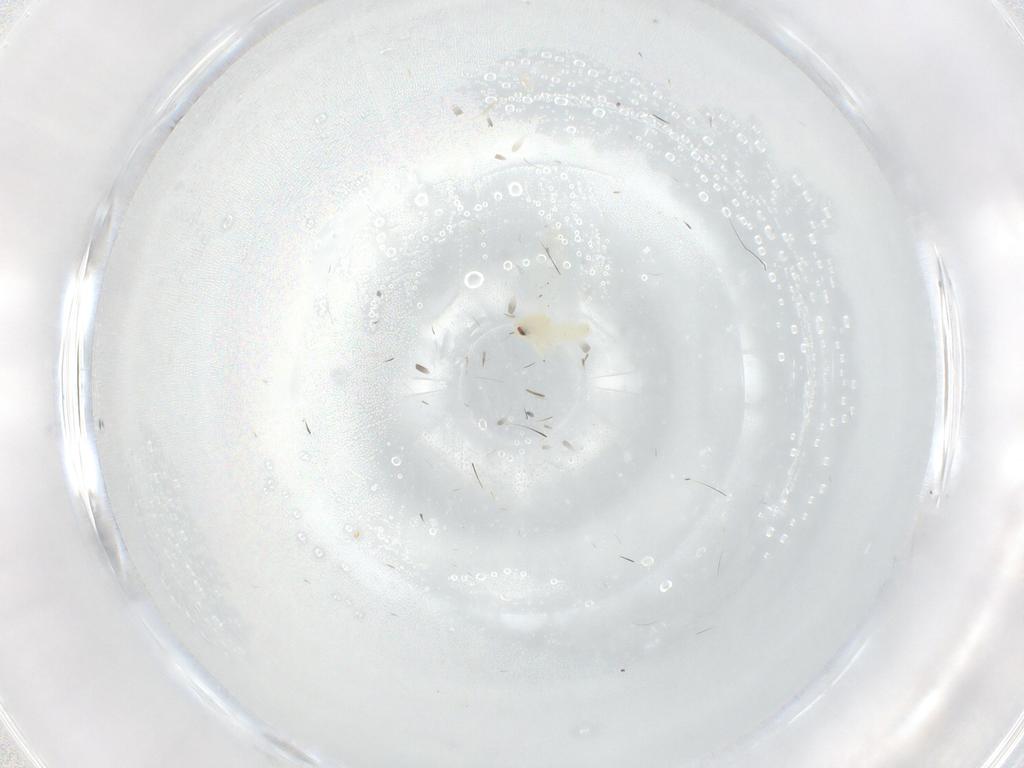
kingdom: Animalia
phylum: Arthropoda
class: Insecta
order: Hemiptera
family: Aleyrodidae
